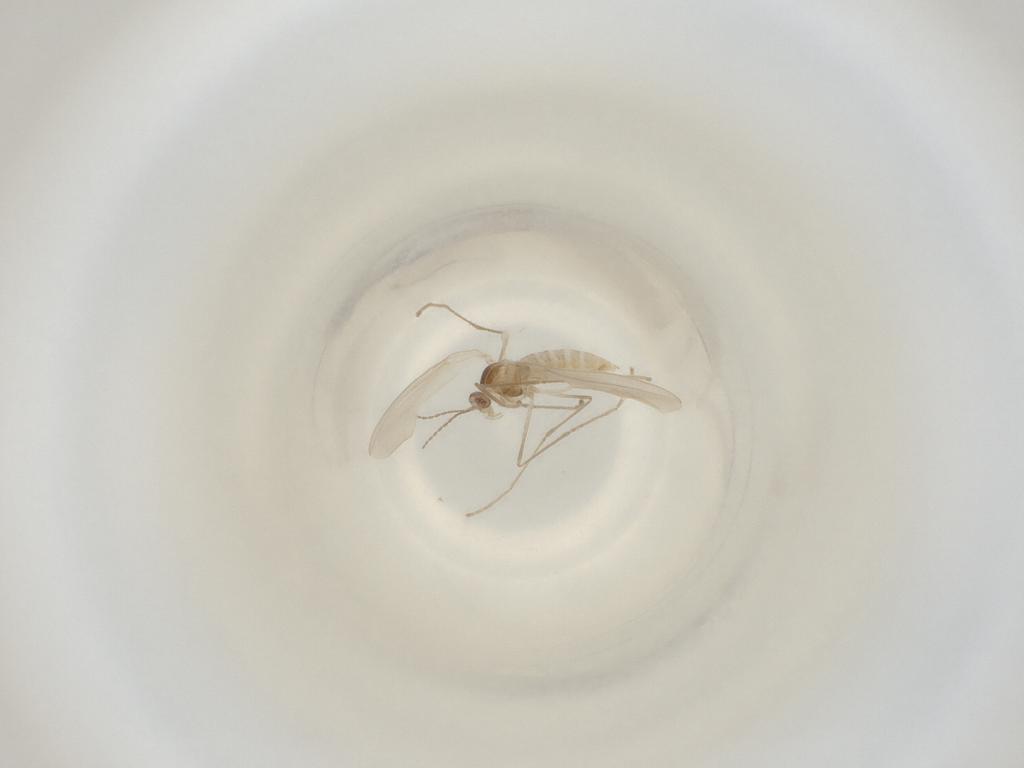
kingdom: Animalia
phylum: Arthropoda
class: Insecta
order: Diptera
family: Cecidomyiidae
